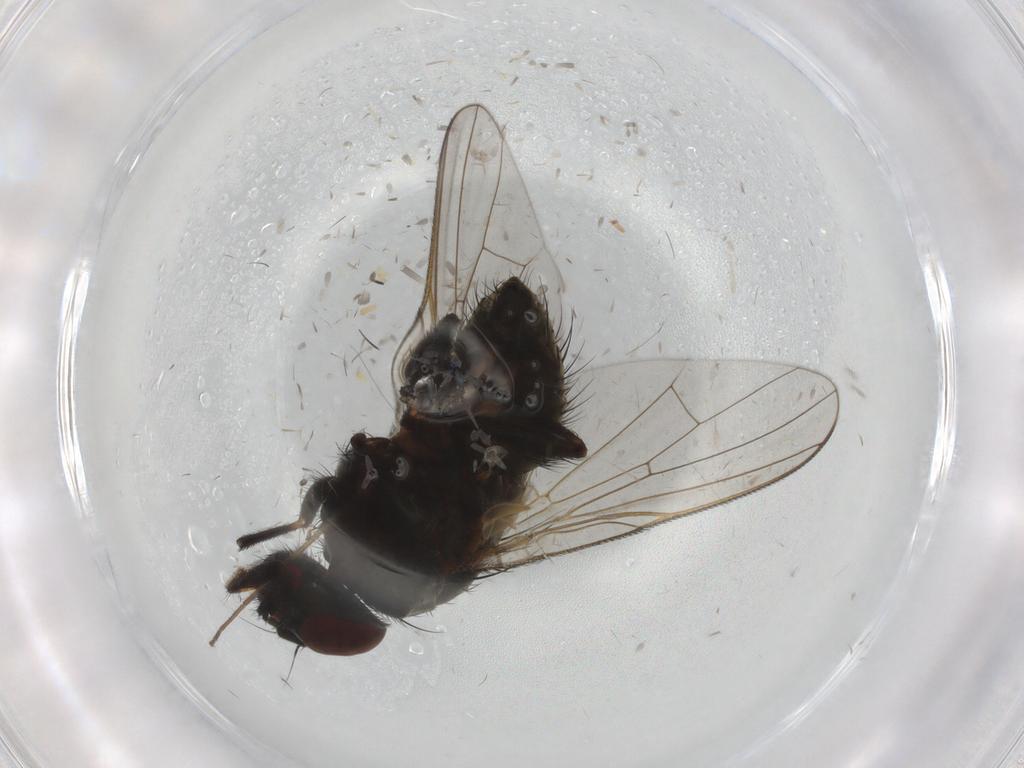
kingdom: Animalia
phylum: Arthropoda
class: Insecta
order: Diptera
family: Muscidae
